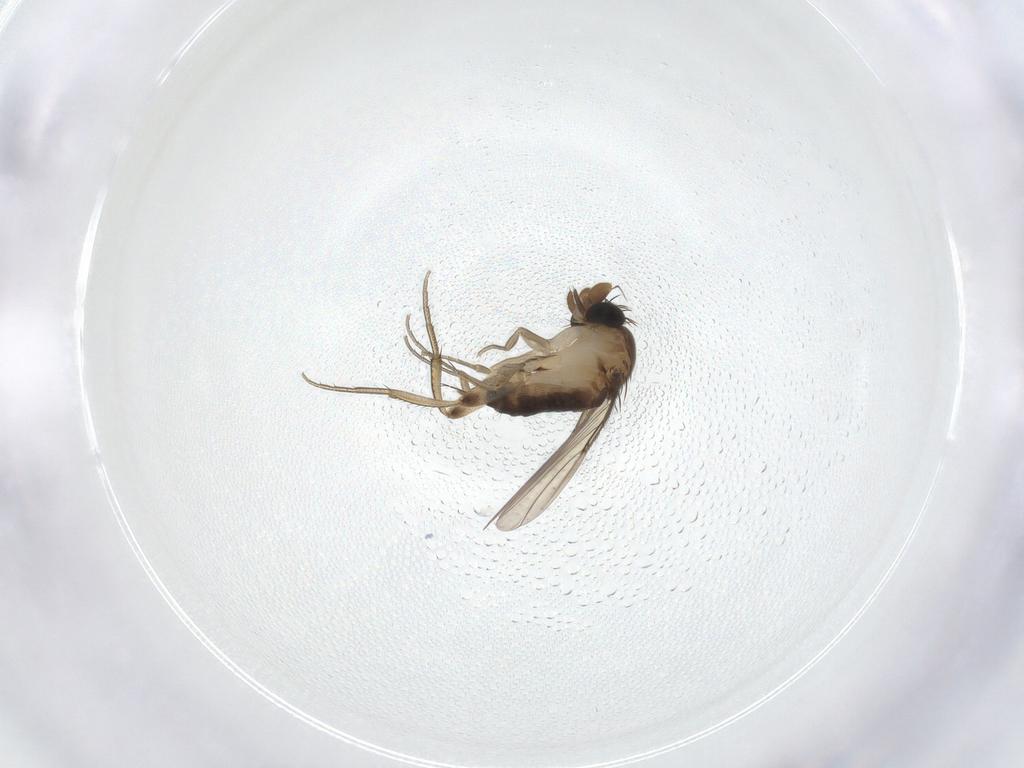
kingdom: Animalia
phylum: Arthropoda
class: Insecta
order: Diptera
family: Phoridae
